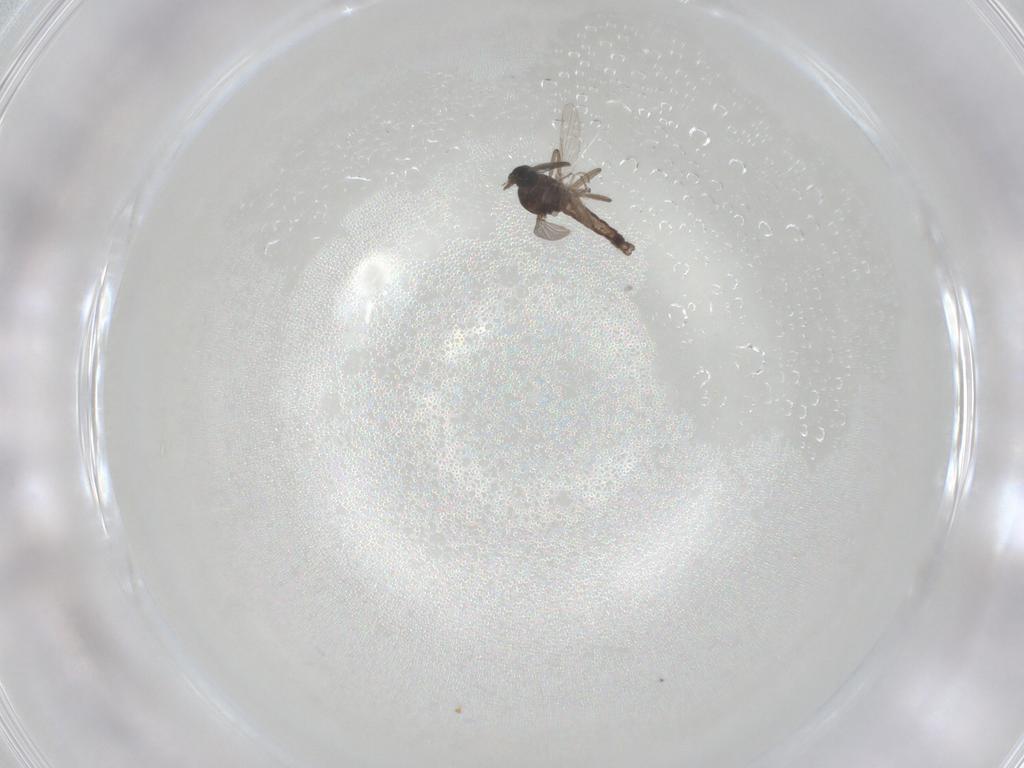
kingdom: Animalia
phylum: Arthropoda
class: Insecta
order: Diptera
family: Ceratopogonidae
